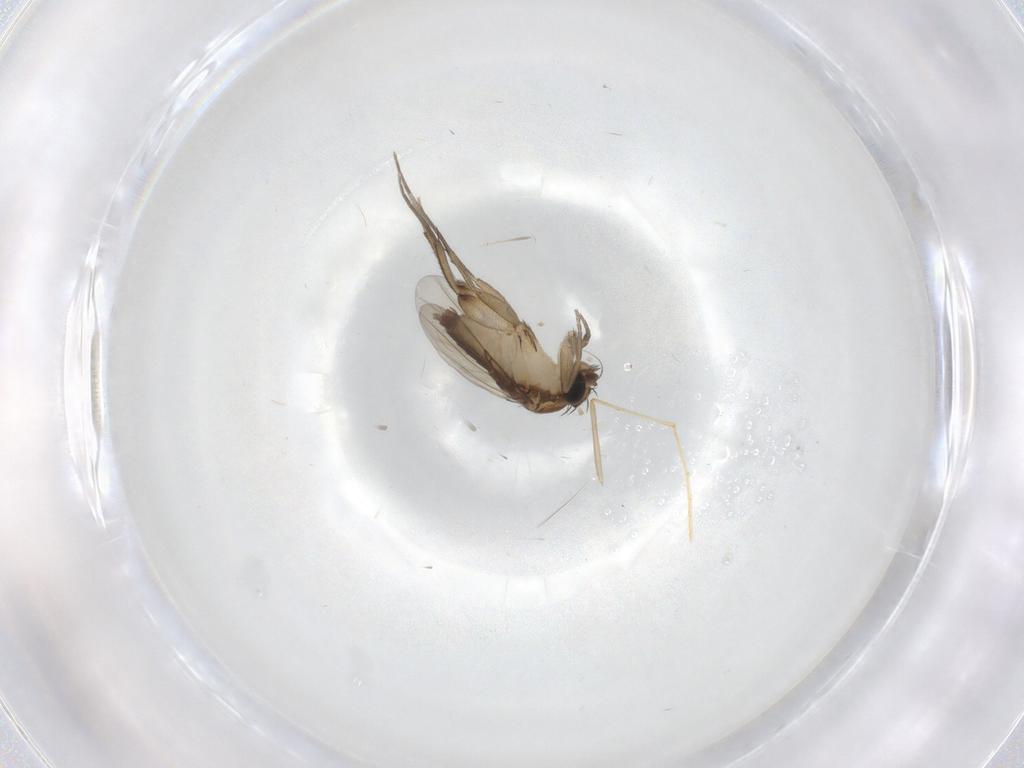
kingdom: Animalia
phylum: Arthropoda
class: Insecta
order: Diptera
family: Phoridae
